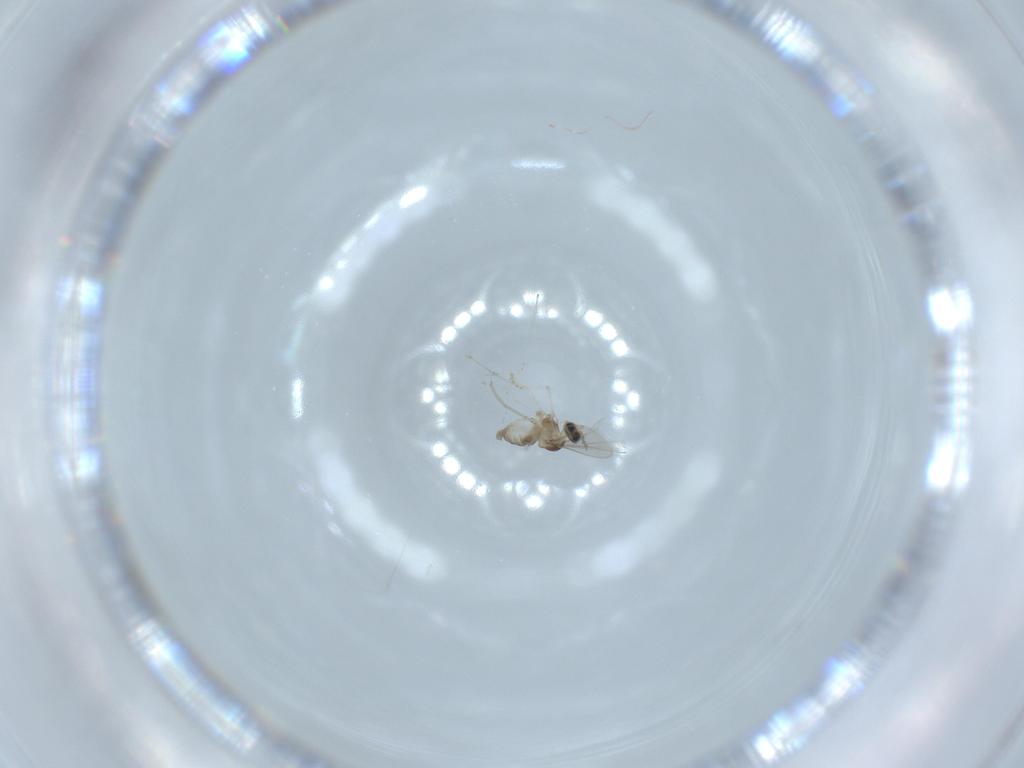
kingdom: Animalia
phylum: Arthropoda
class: Insecta
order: Diptera
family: Cecidomyiidae
